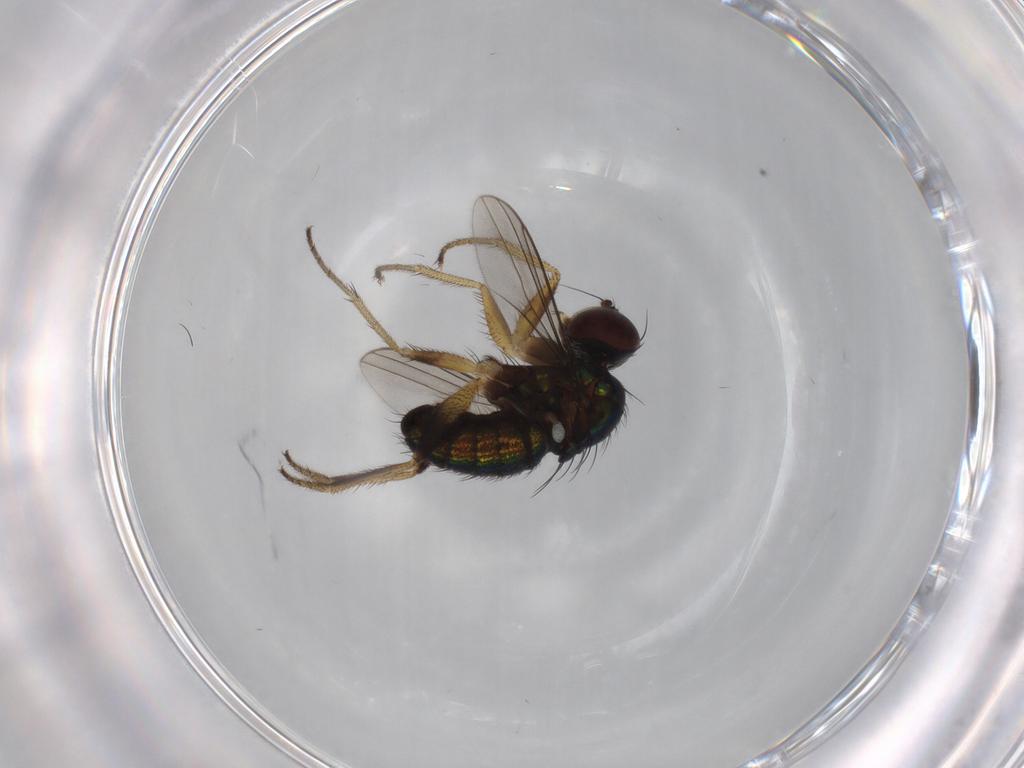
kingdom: Animalia
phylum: Arthropoda
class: Insecta
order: Diptera
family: Dolichopodidae
